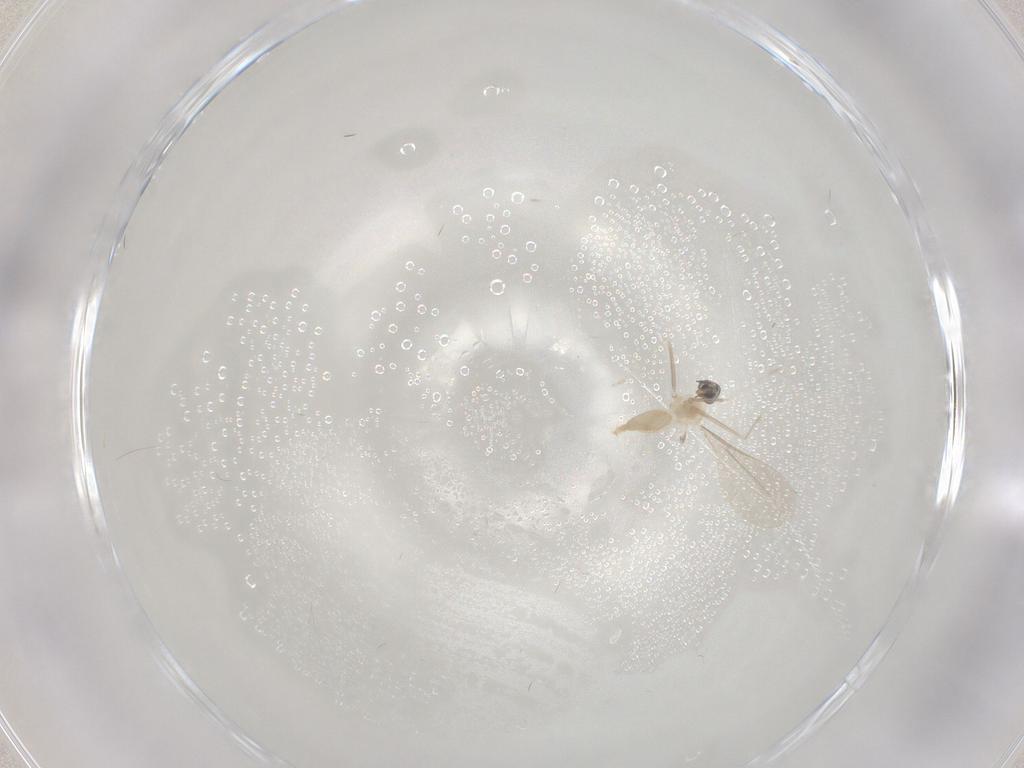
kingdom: Animalia
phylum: Arthropoda
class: Insecta
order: Diptera
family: Cecidomyiidae
